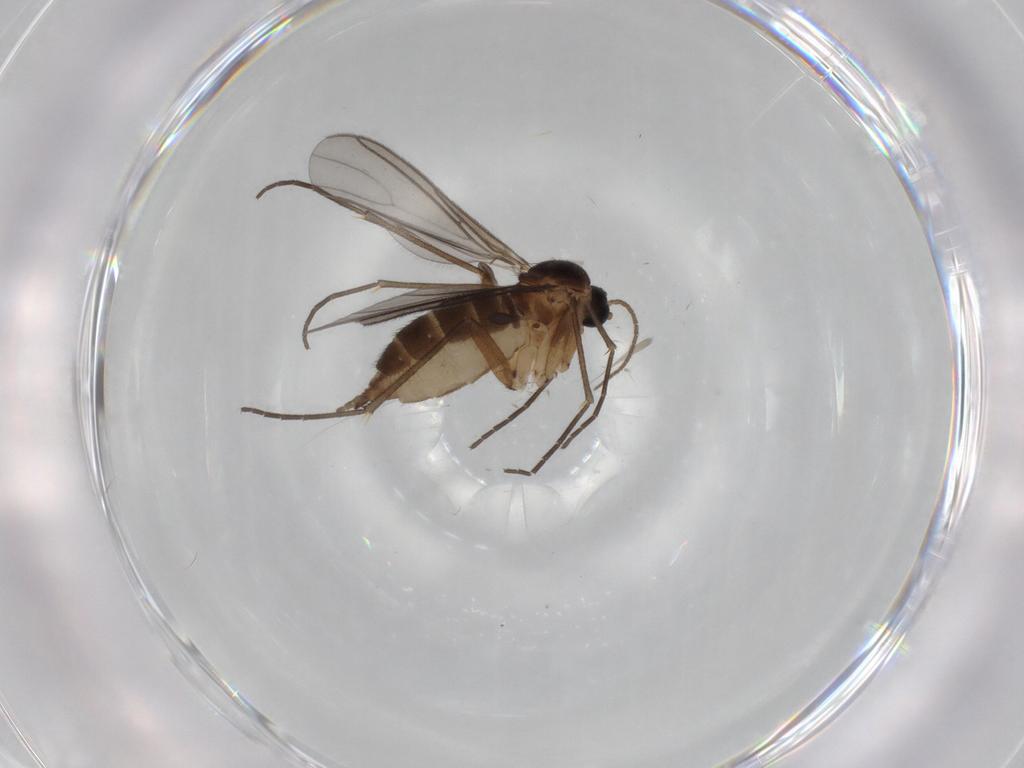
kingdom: Animalia
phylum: Arthropoda
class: Insecta
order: Diptera
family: Sciaridae
